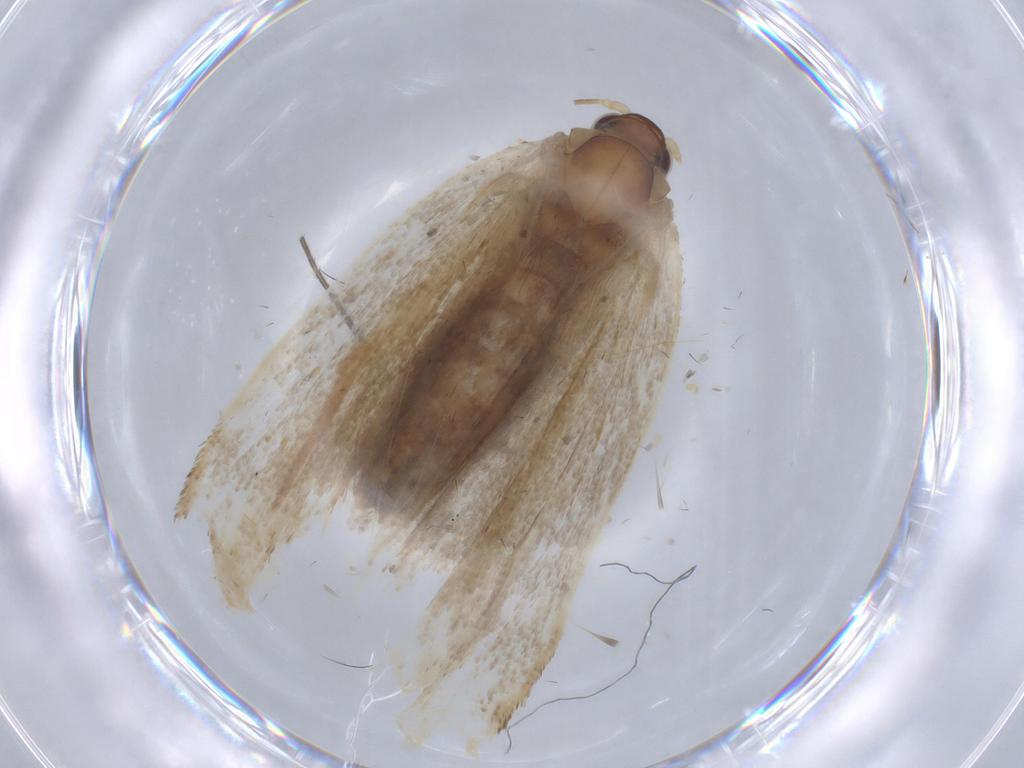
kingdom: Animalia
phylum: Arthropoda
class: Insecta
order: Lepidoptera
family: Tortricidae
